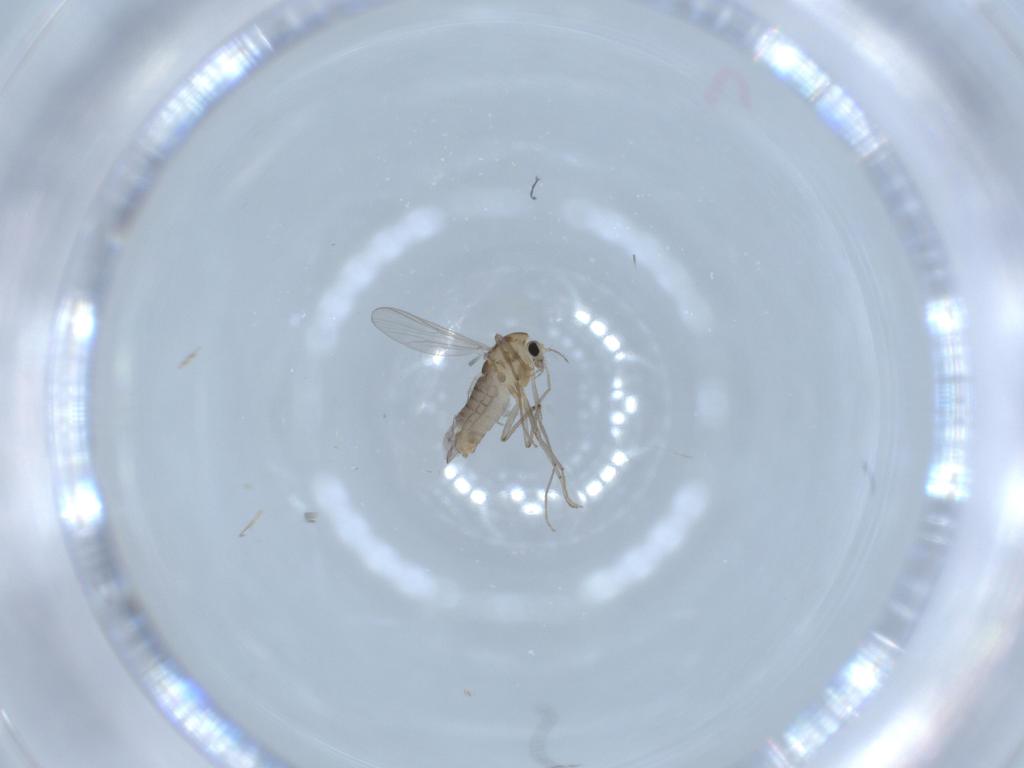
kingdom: Animalia
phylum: Arthropoda
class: Insecta
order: Diptera
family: Chironomidae
